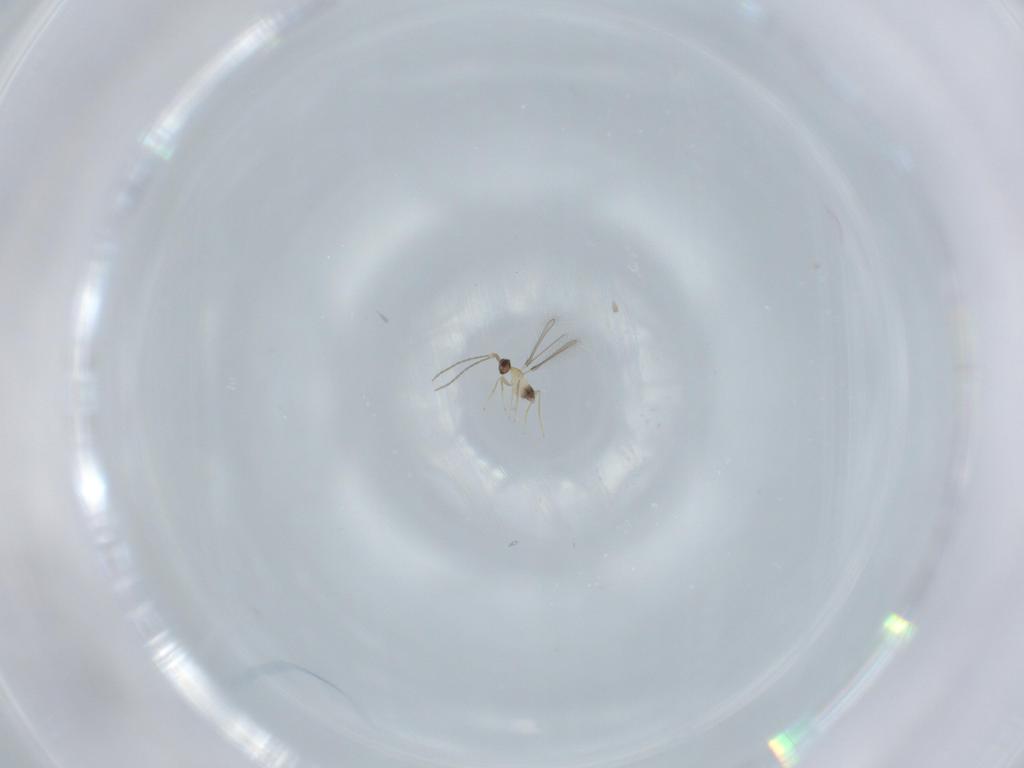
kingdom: Animalia
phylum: Arthropoda
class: Insecta
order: Hymenoptera
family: Mymaridae
